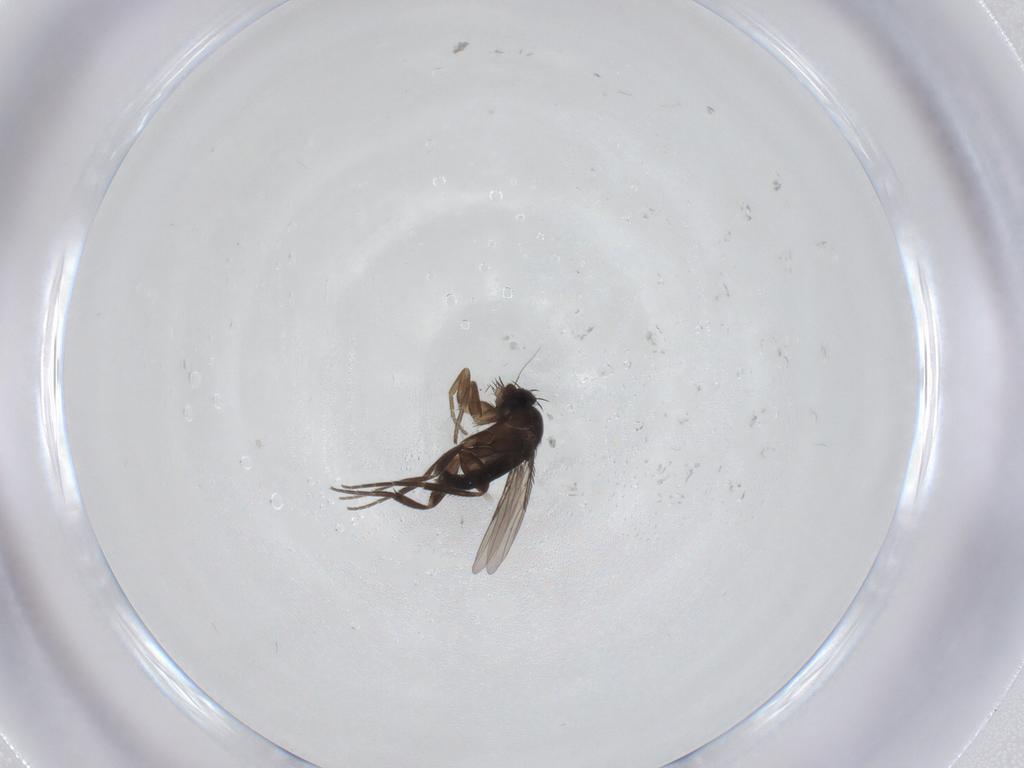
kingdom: Animalia
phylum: Arthropoda
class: Insecta
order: Diptera
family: Phoridae
